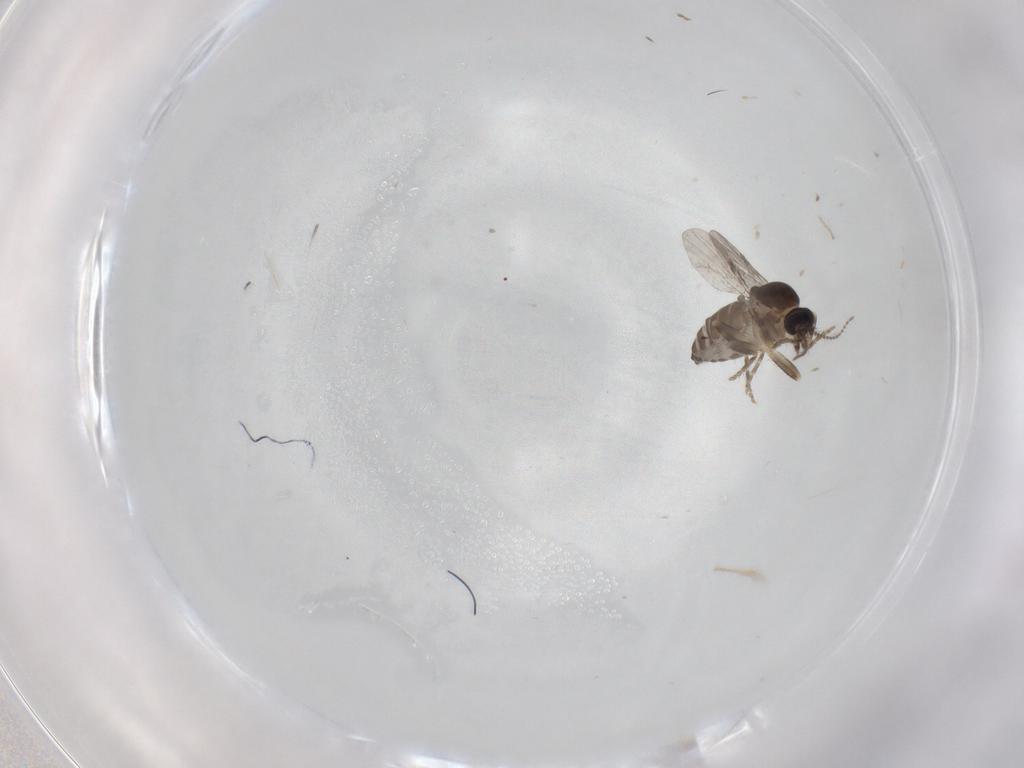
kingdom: Animalia
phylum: Arthropoda
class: Insecta
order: Diptera
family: Ceratopogonidae
